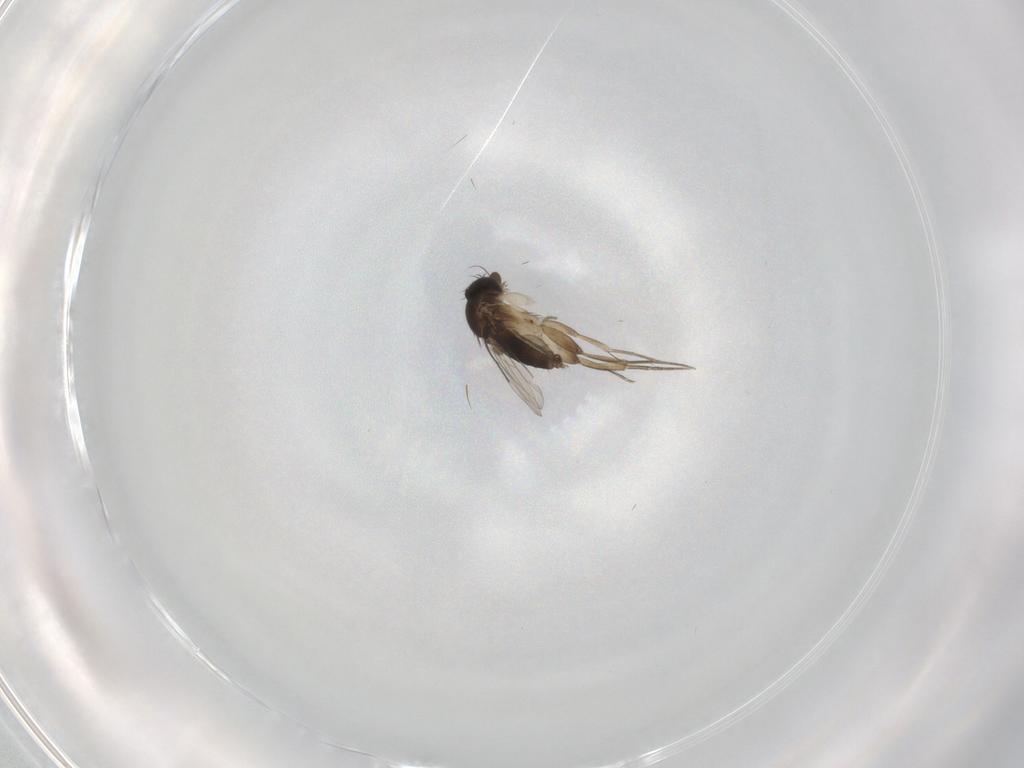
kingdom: Animalia
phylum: Arthropoda
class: Insecta
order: Diptera
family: Phoridae
